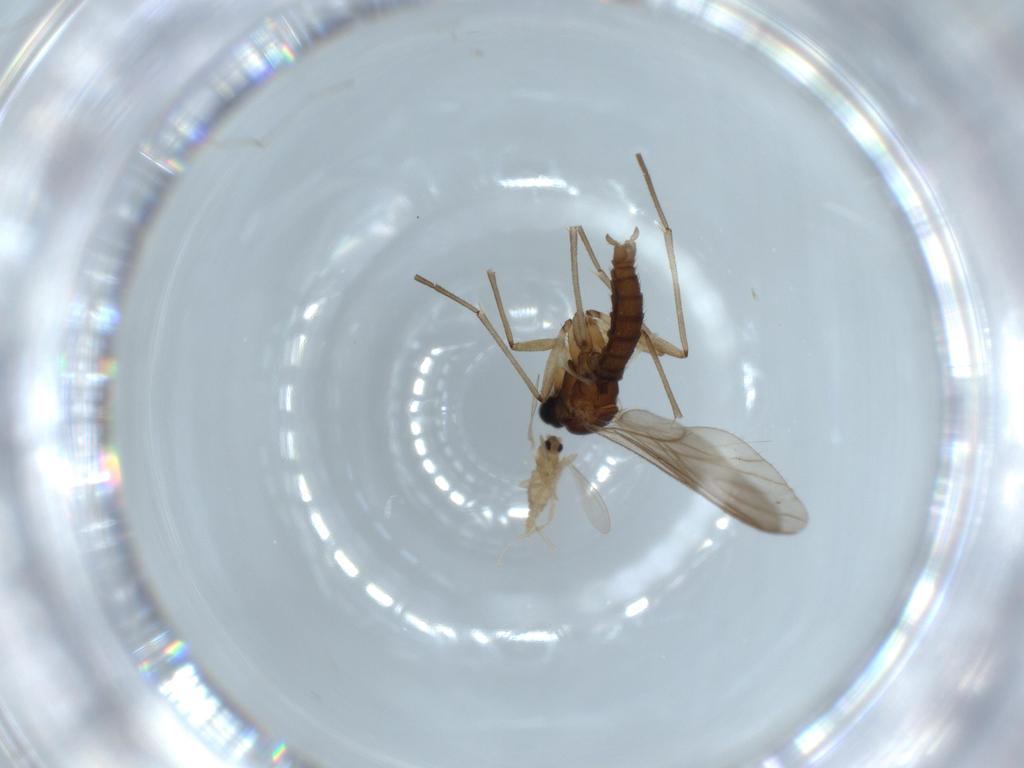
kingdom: Animalia
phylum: Arthropoda
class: Insecta
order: Diptera
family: Sciaridae
